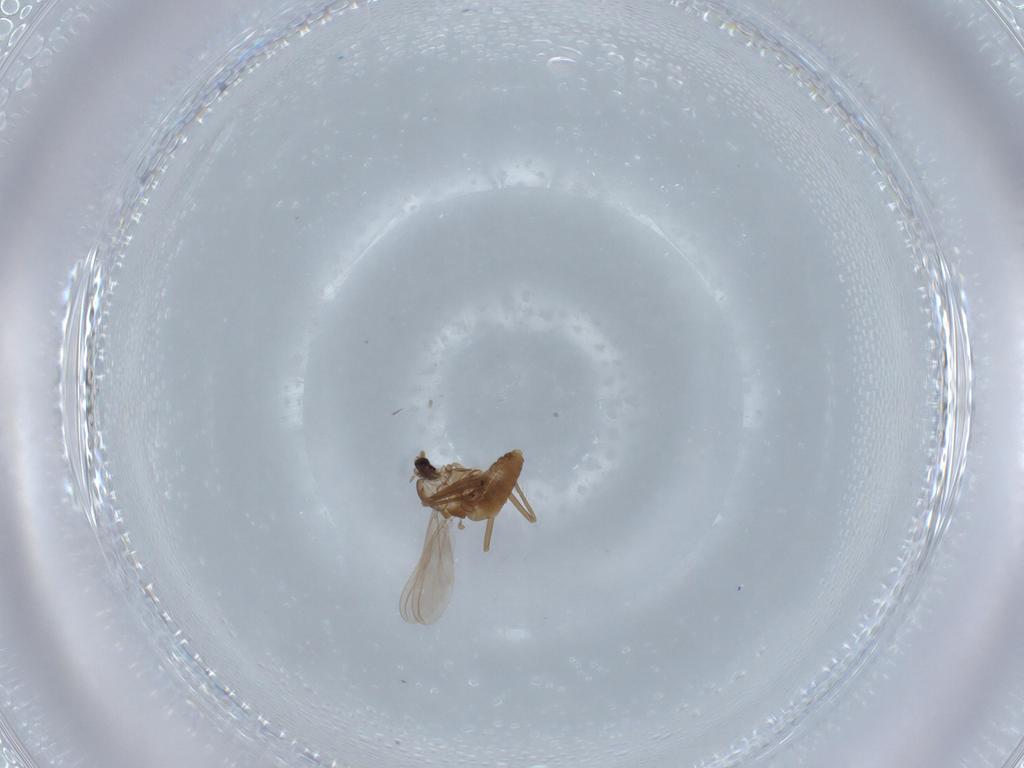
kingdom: Animalia
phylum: Arthropoda
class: Insecta
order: Diptera
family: Chironomidae
